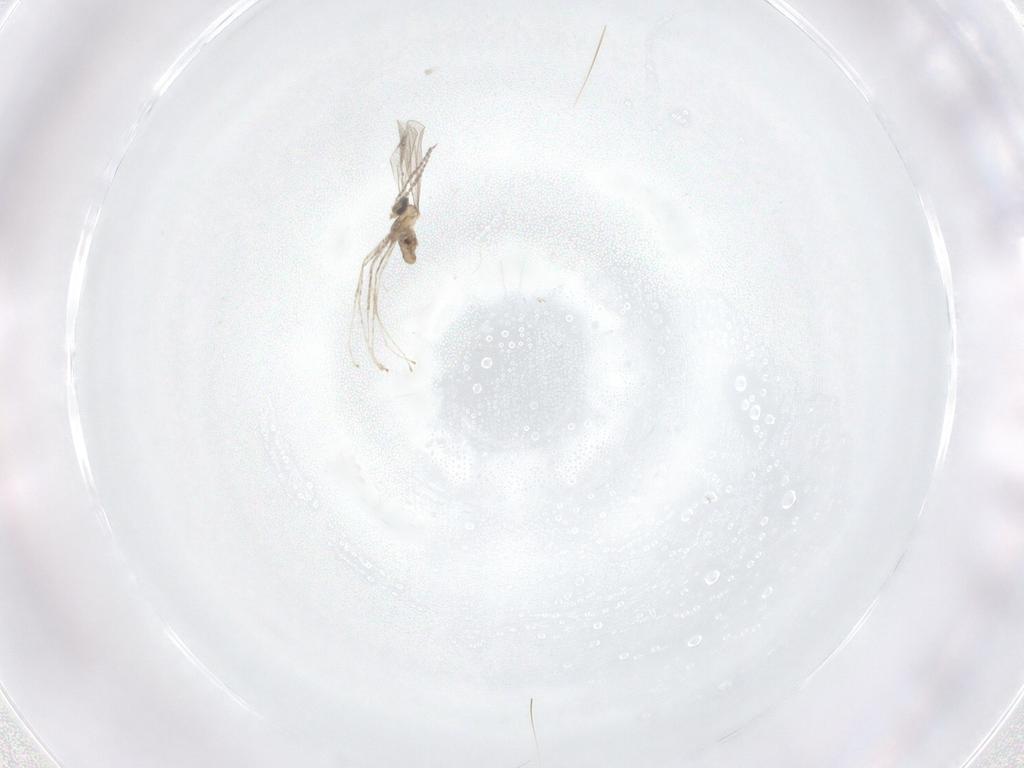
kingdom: Animalia
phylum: Arthropoda
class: Insecta
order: Diptera
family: Cecidomyiidae
